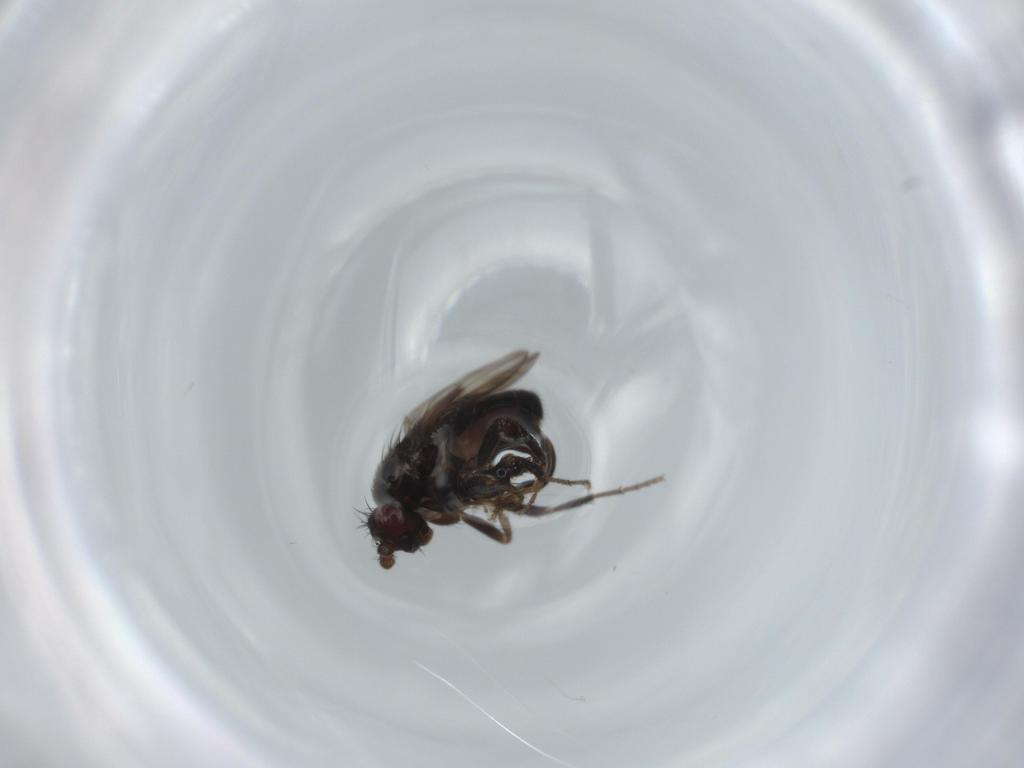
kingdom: Animalia
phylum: Arthropoda
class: Insecta
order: Diptera
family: Sphaeroceridae
